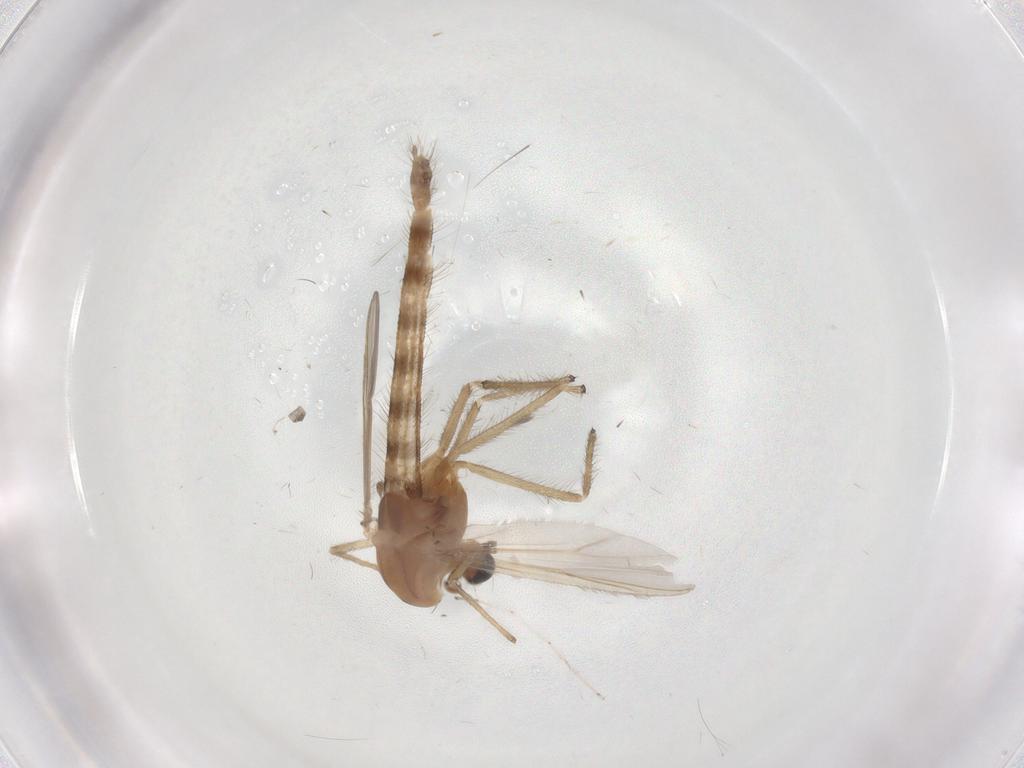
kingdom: Animalia
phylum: Arthropoda
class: Insecta
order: Diptera
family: Chironomidae
